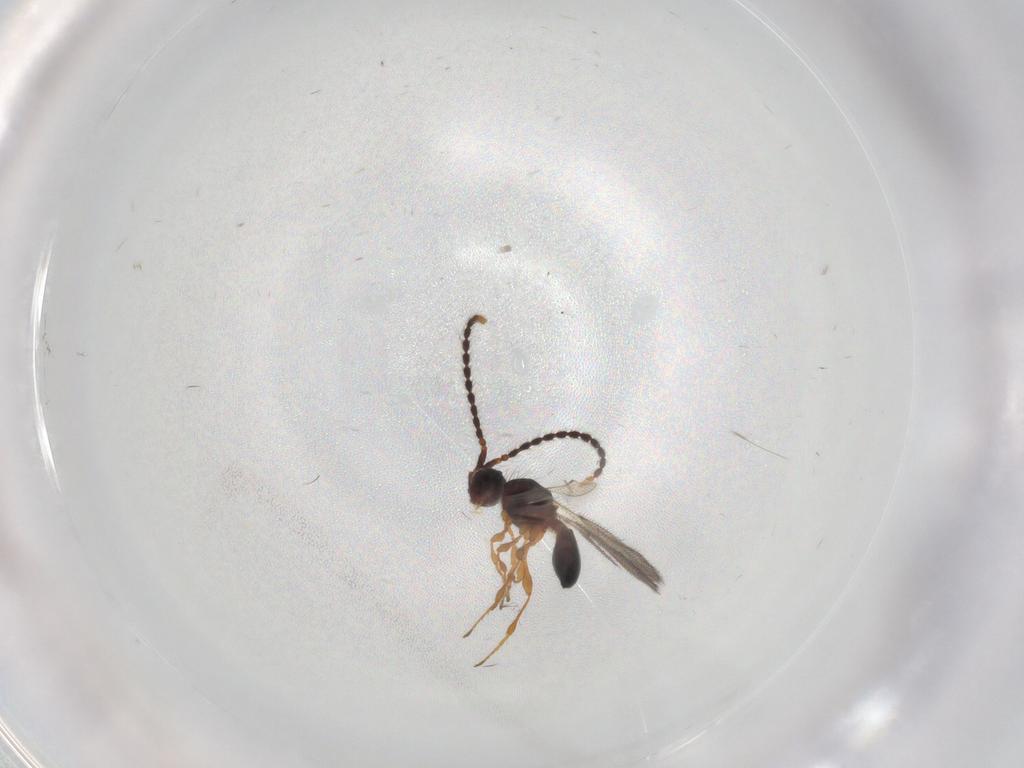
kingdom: Animalia
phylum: Arthropoda
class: Insecta
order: Hymenoptera
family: Diapriidae
